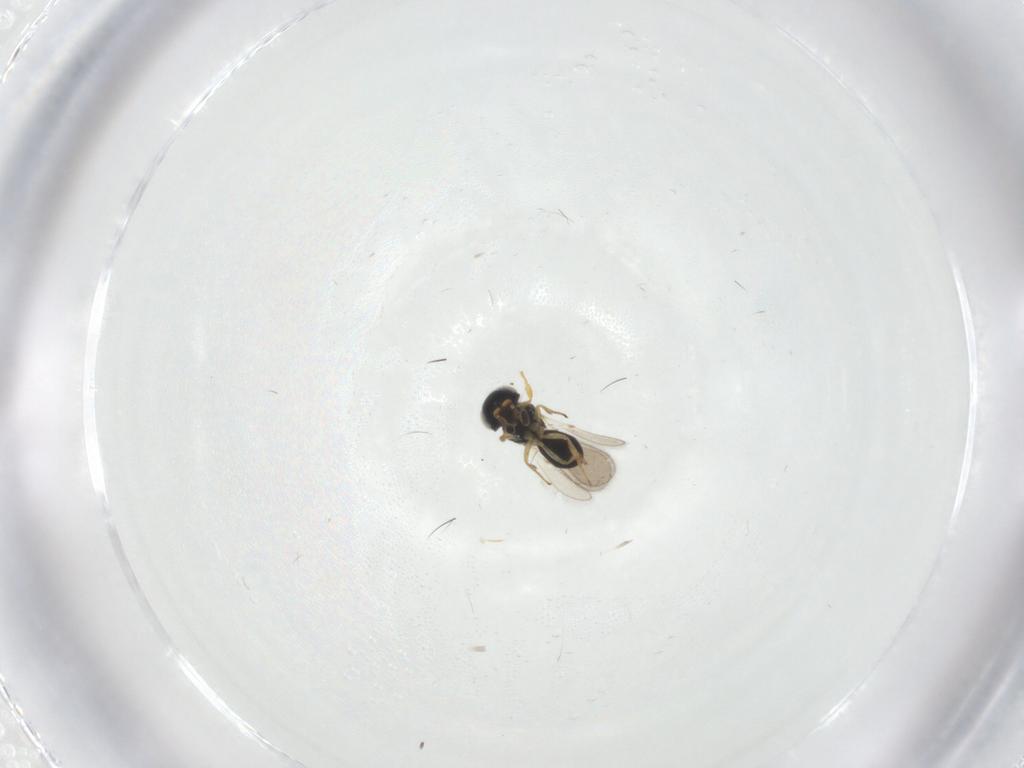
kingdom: Animalia
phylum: Arthropoda
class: Insecta
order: Hymenoptera
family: Scelionidae
